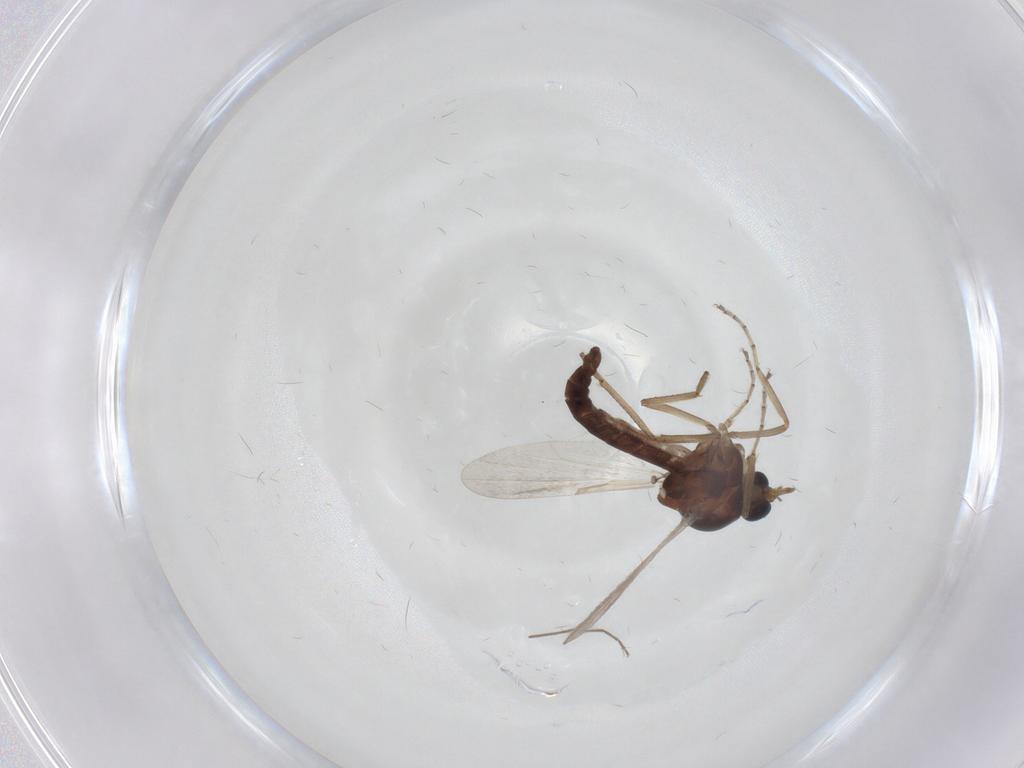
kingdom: Animalia
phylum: Arthropoda
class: Insecta
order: Diptera
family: Ceratopogonidae
